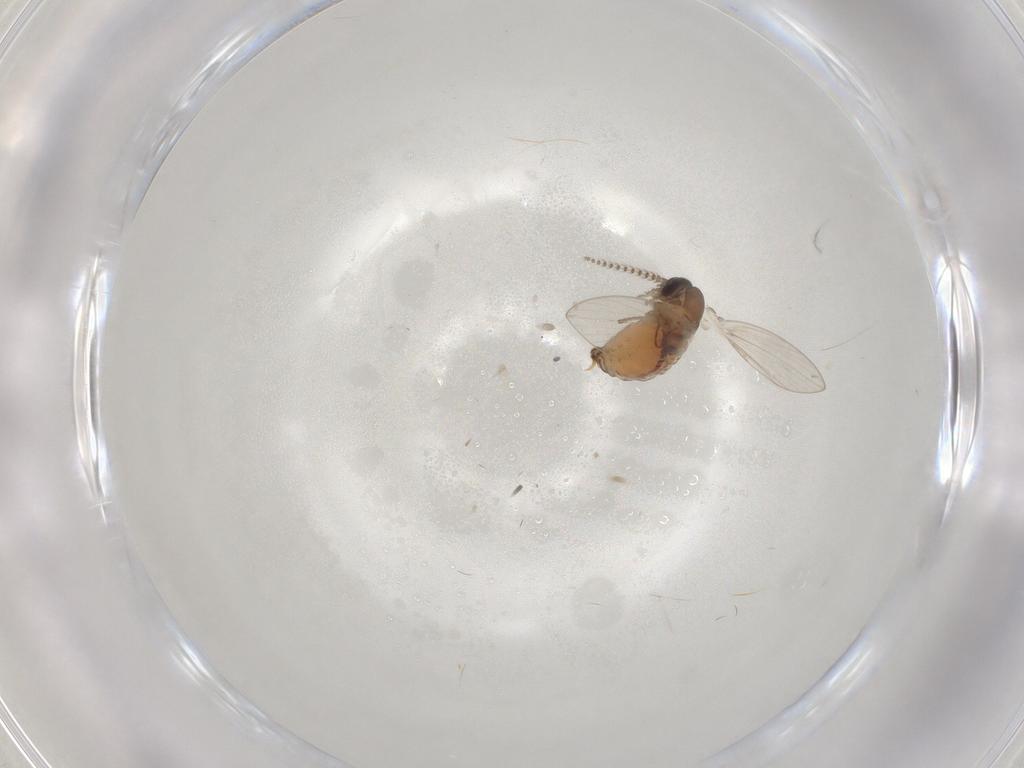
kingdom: Animalia
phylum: Arthropoda
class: Insecta
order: Diptera
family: Psychodidae
